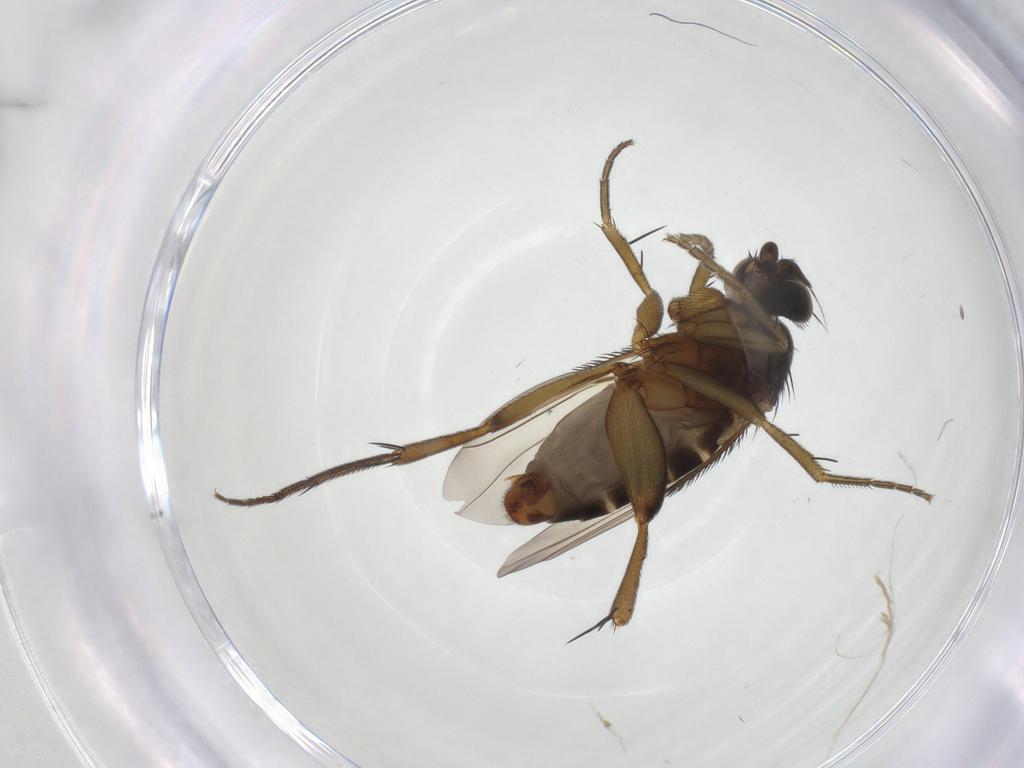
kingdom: Animalia
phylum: Arthropoda
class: Insecta
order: Diptera
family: Phoridae
